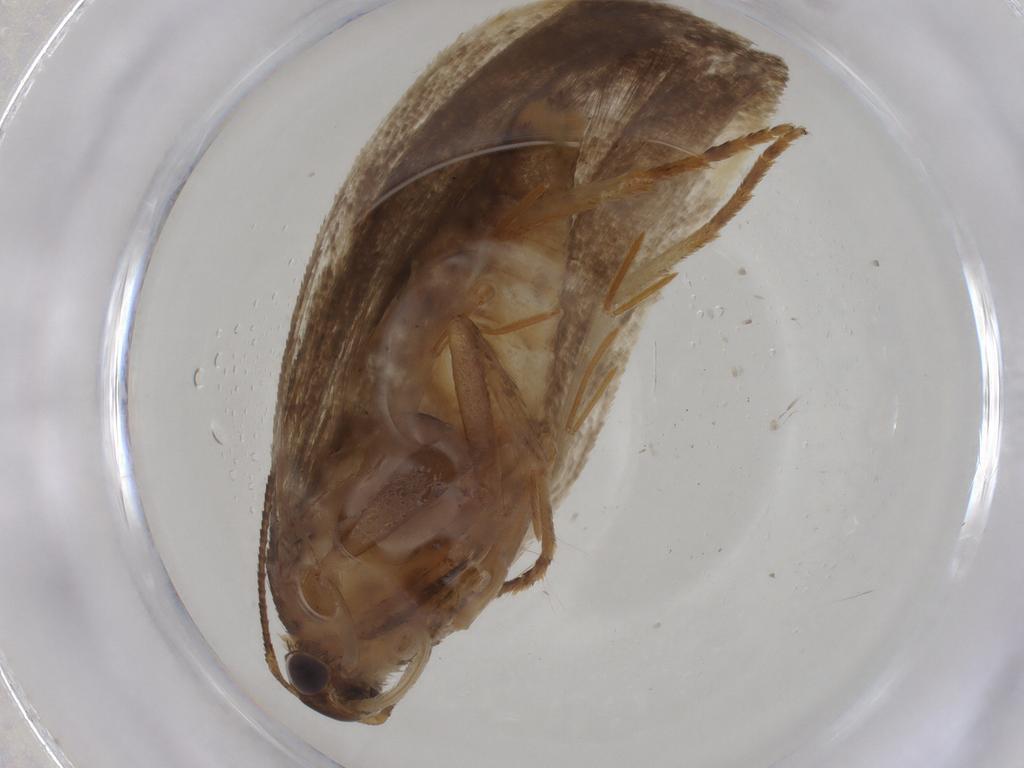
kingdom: Animalia
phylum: Arthropoda
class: Insecta
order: Lepidoptera
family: Gelechiidae
